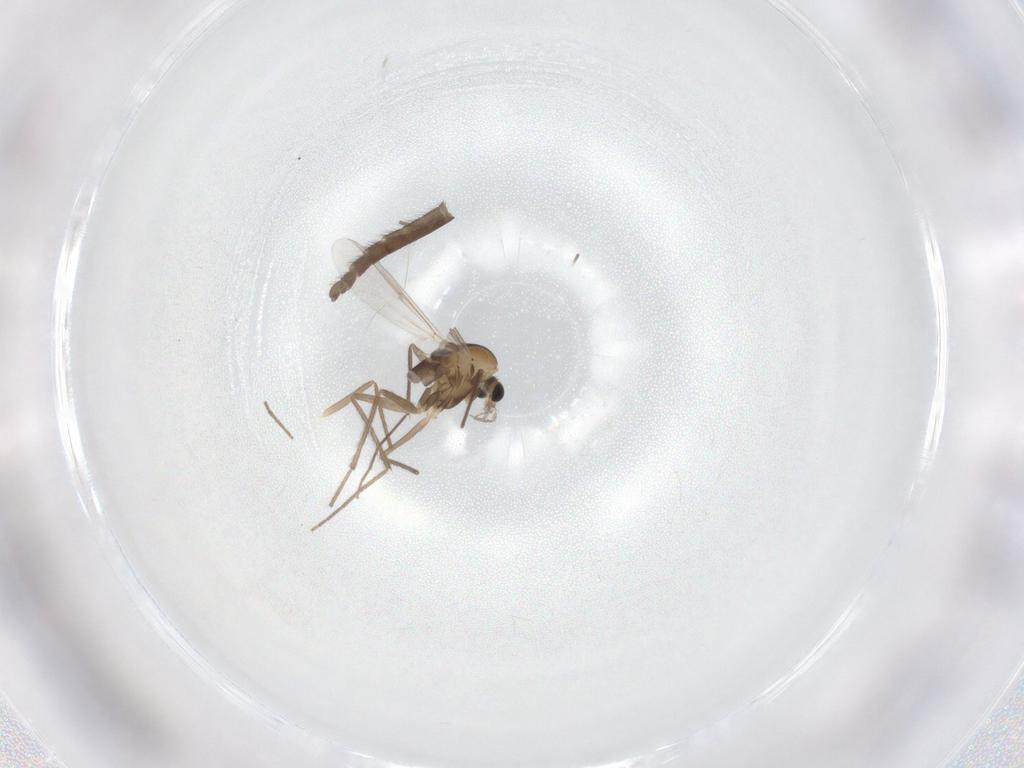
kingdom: Animalia
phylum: Arthropoda
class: Insecta
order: Diptera
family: Chironomidae
